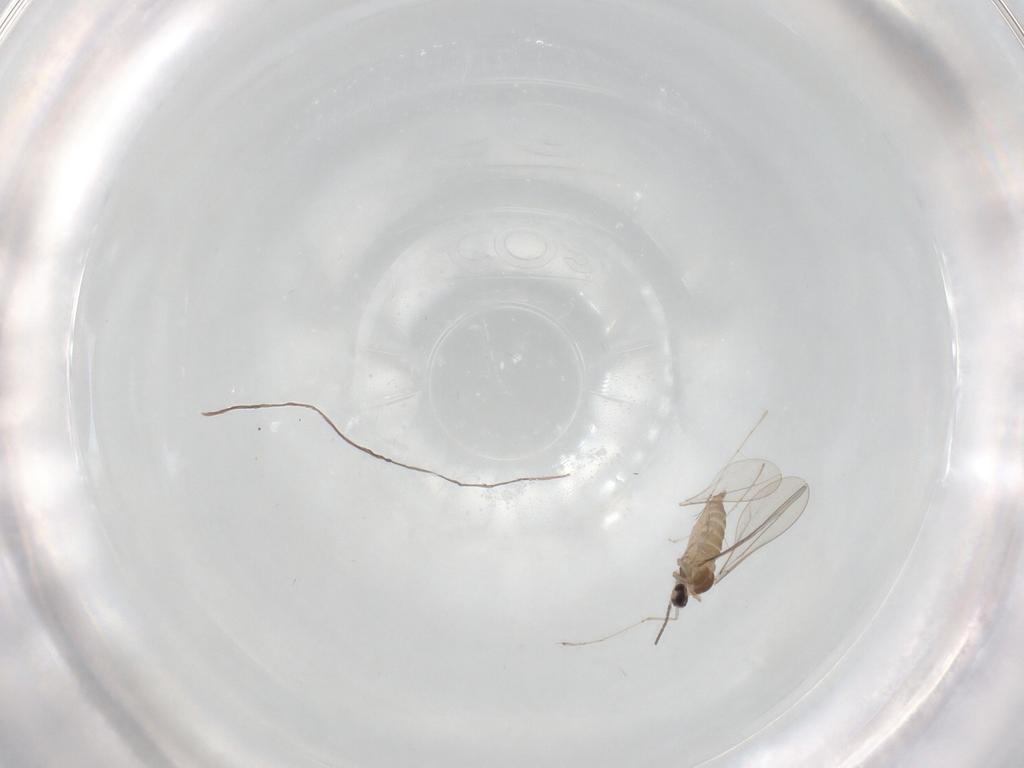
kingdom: Animalia
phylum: Arthropoda
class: Insecta
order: Diptera
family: Cecidomyiidae
